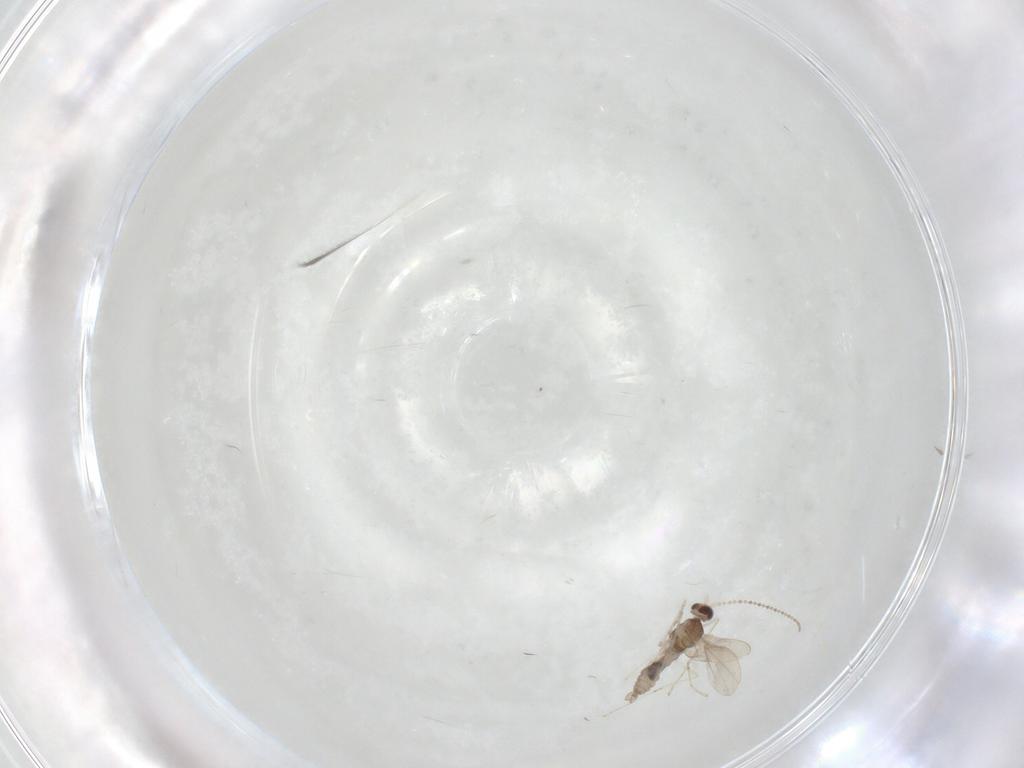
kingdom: Animalia
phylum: Arthropoda
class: Insecta
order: Diptera
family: Cecidomyiidae
